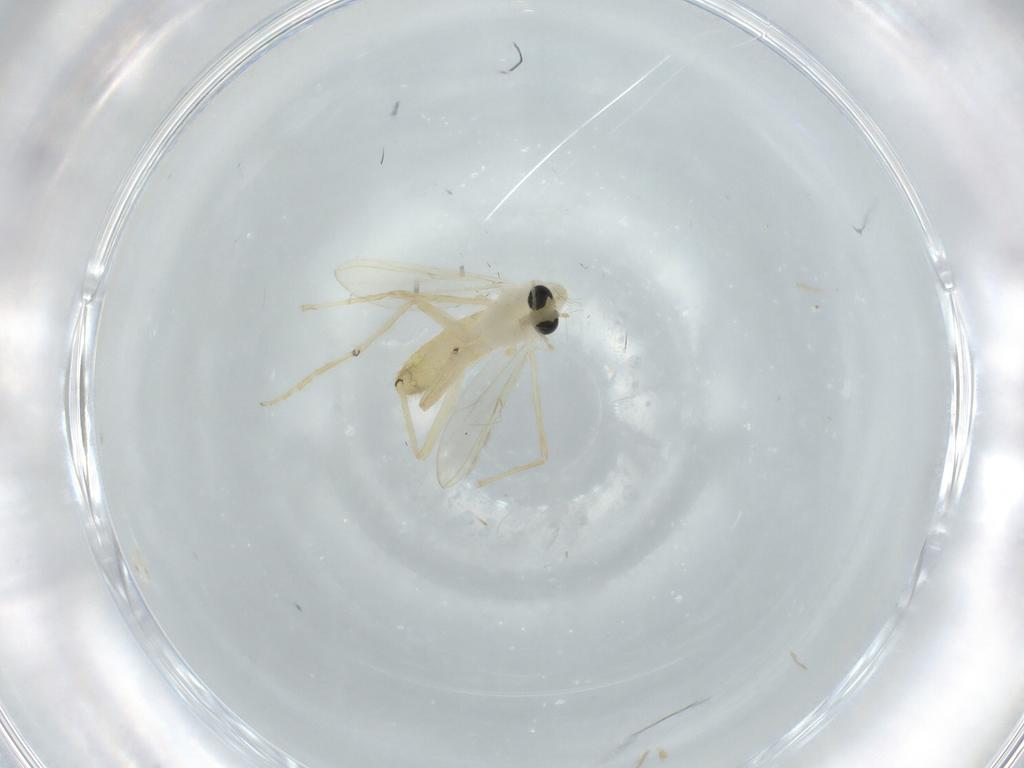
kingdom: Animalia
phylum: Arthropoda
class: Insecta
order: Diptera
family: Chironomidae
